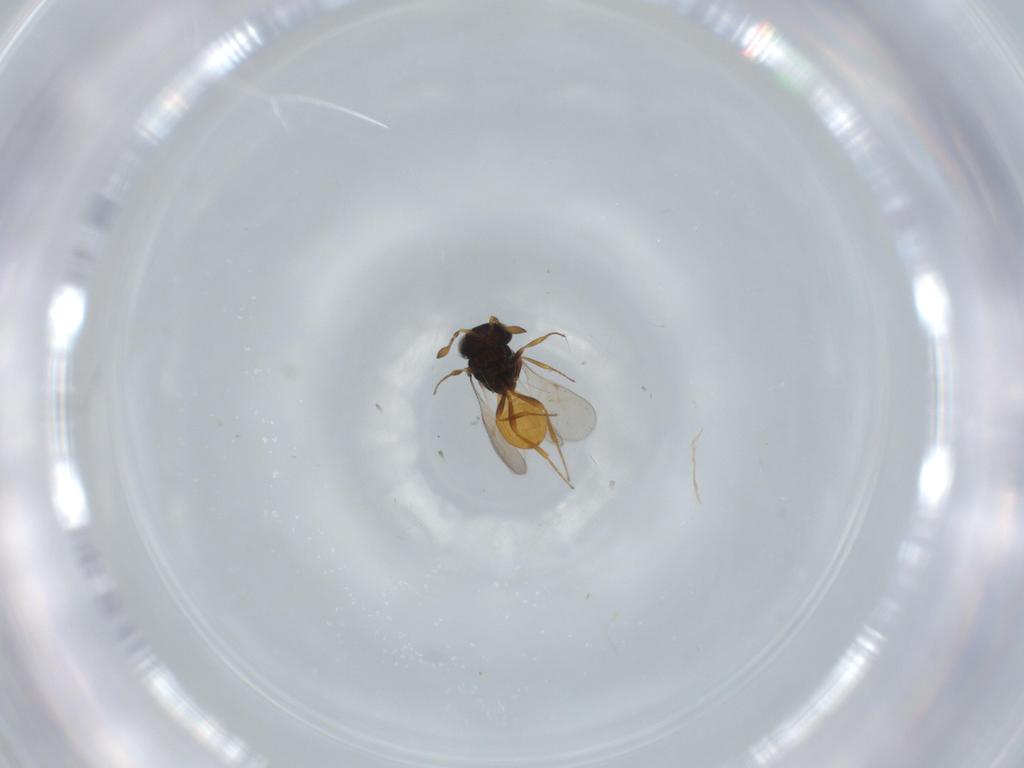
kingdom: Animalia
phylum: Arthropoda
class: Insecta
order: Hymenoptera
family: Scelionidae
